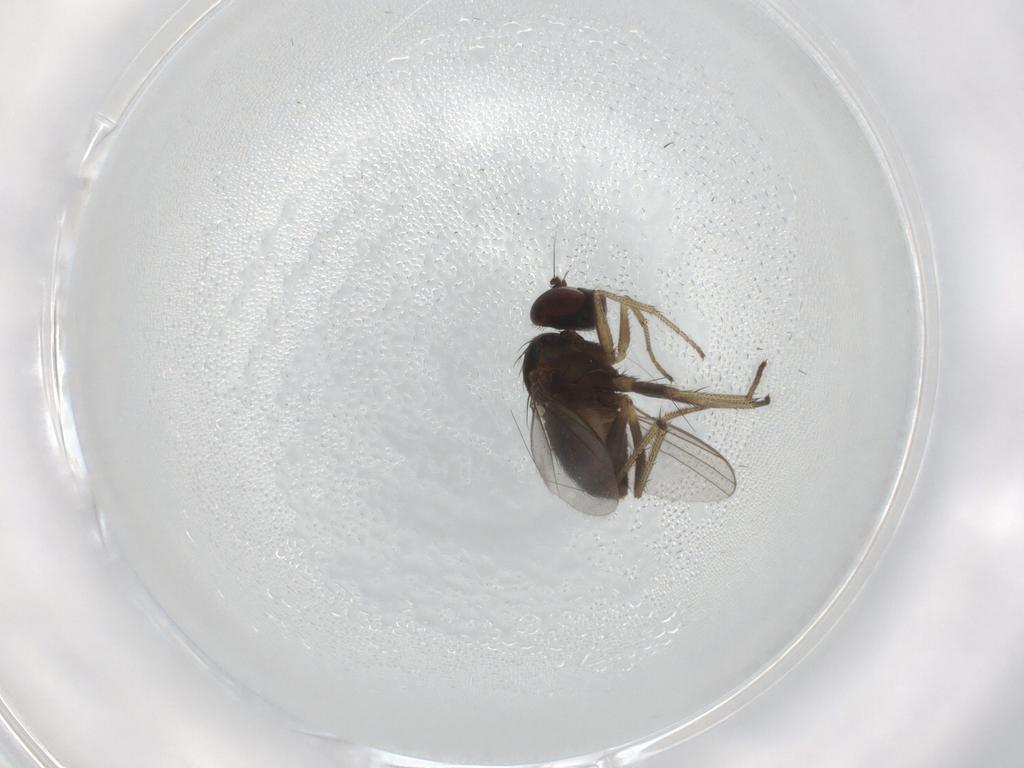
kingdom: Animalia
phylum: Arthropoda
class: Insecta
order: Diptera
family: Dolichopodidae
